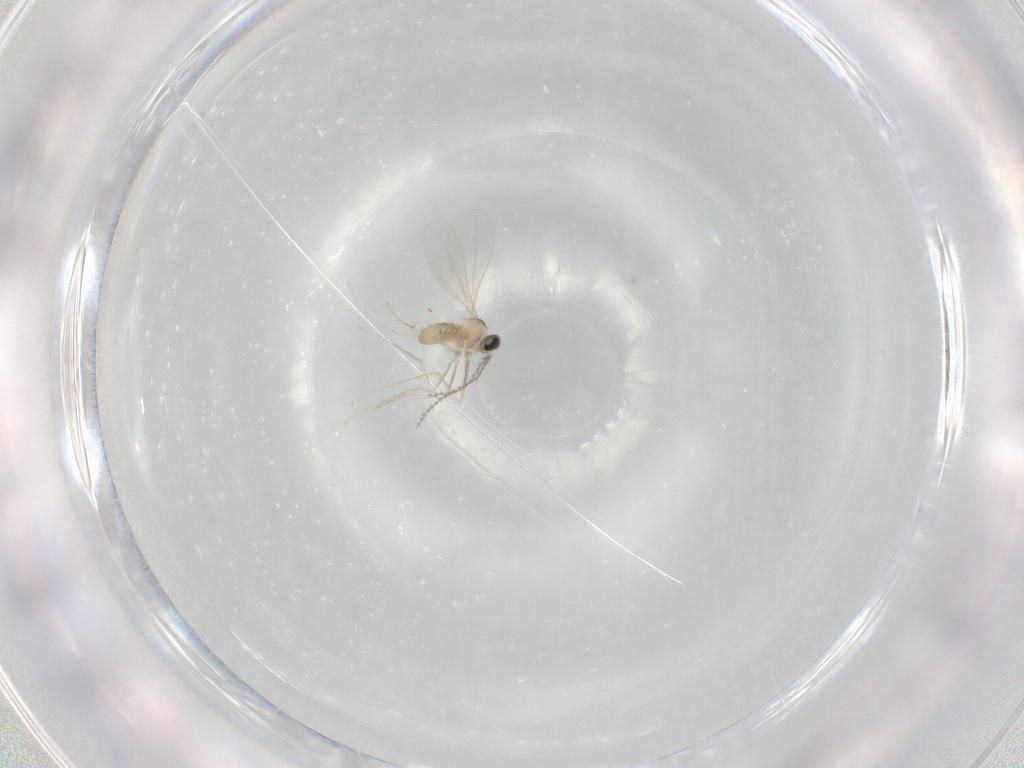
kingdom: Animalia
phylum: Arthropoda
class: Insecta
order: Diptera
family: Cecidomyiidae
